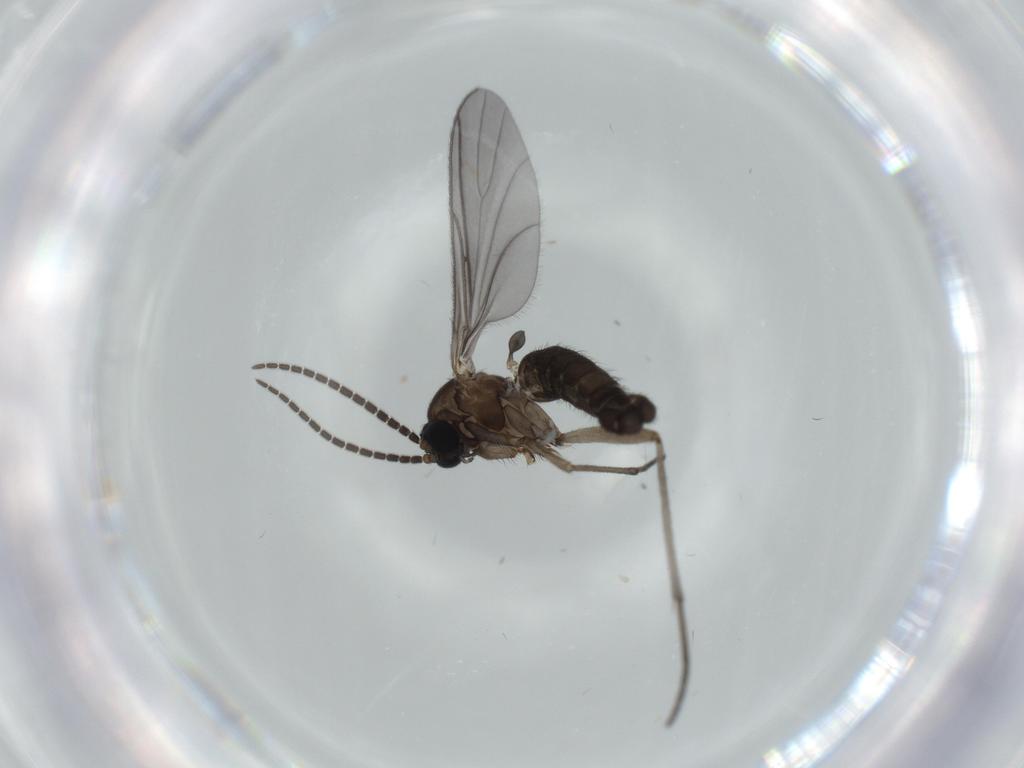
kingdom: Animalia
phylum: Arthropoda
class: Insecta
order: Diptera
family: Sciaridae
